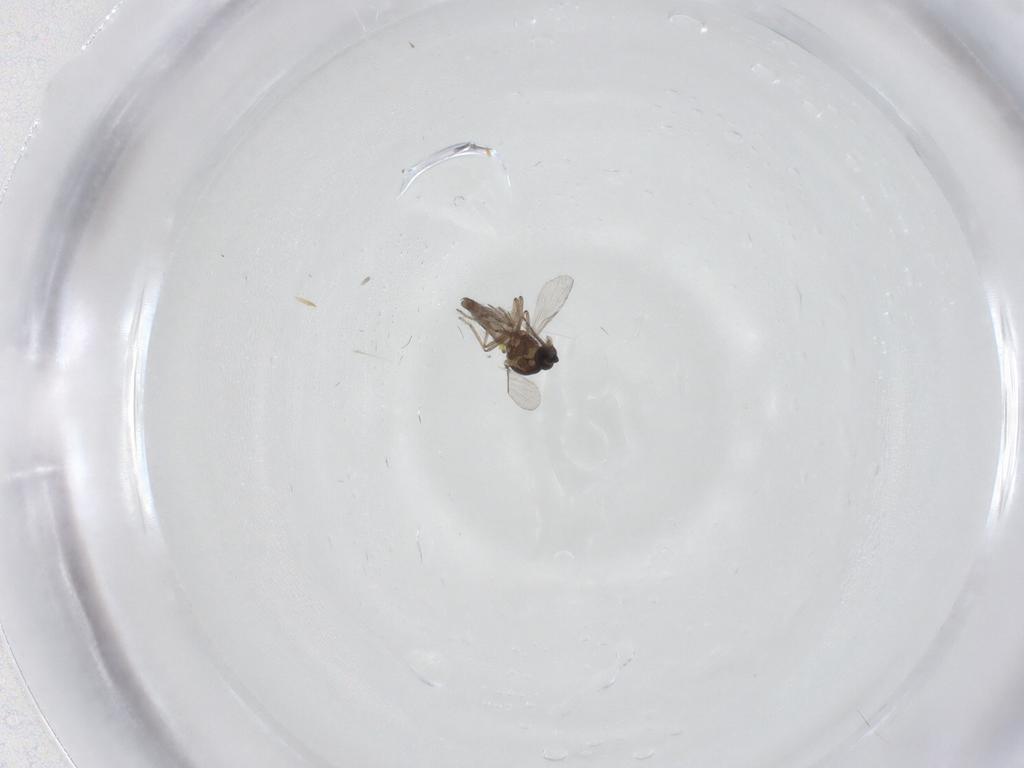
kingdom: Animalia
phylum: Arthropoda
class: Insecta
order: Diptera
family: Ceratopogonidae
